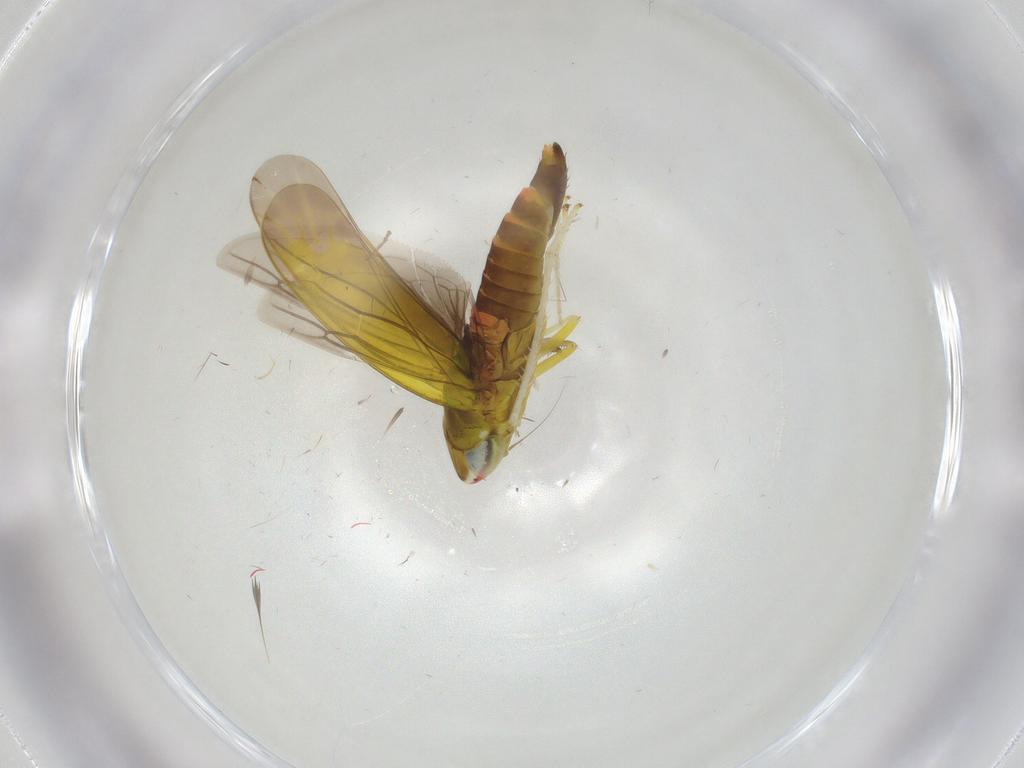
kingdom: Animalia
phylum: Arthropoda
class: Insecta
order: Hemiptera
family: Cicadellidae
